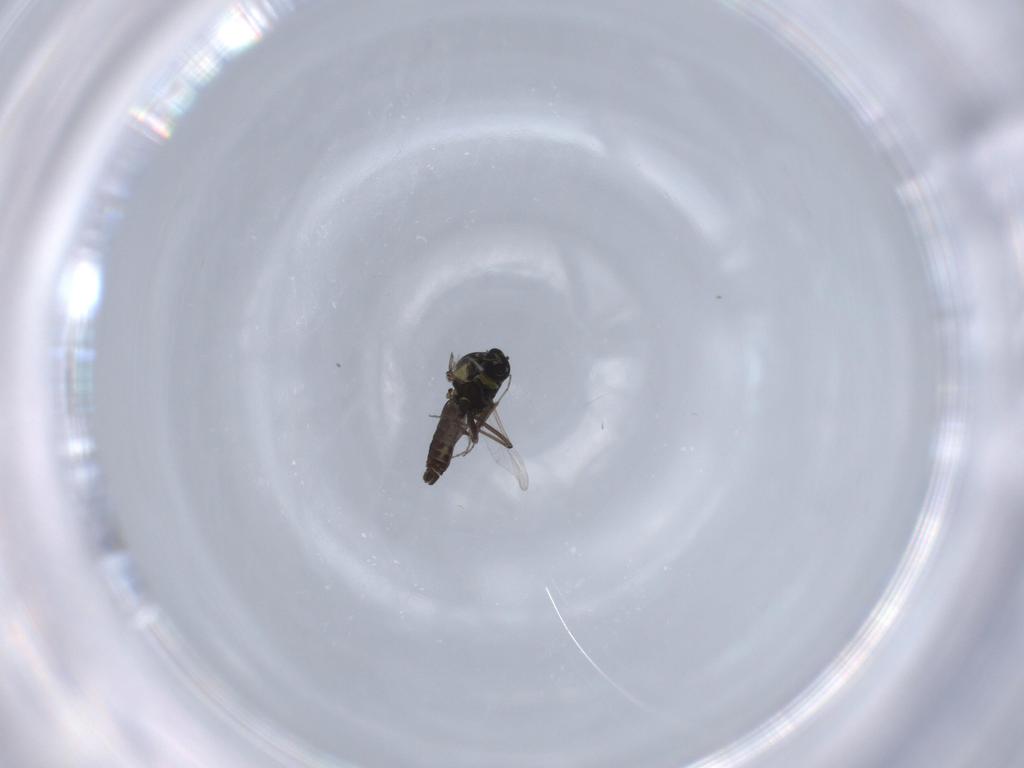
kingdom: Animalia
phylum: Arthropoda
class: Insecta
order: Diptera
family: Ceratopogonidae
